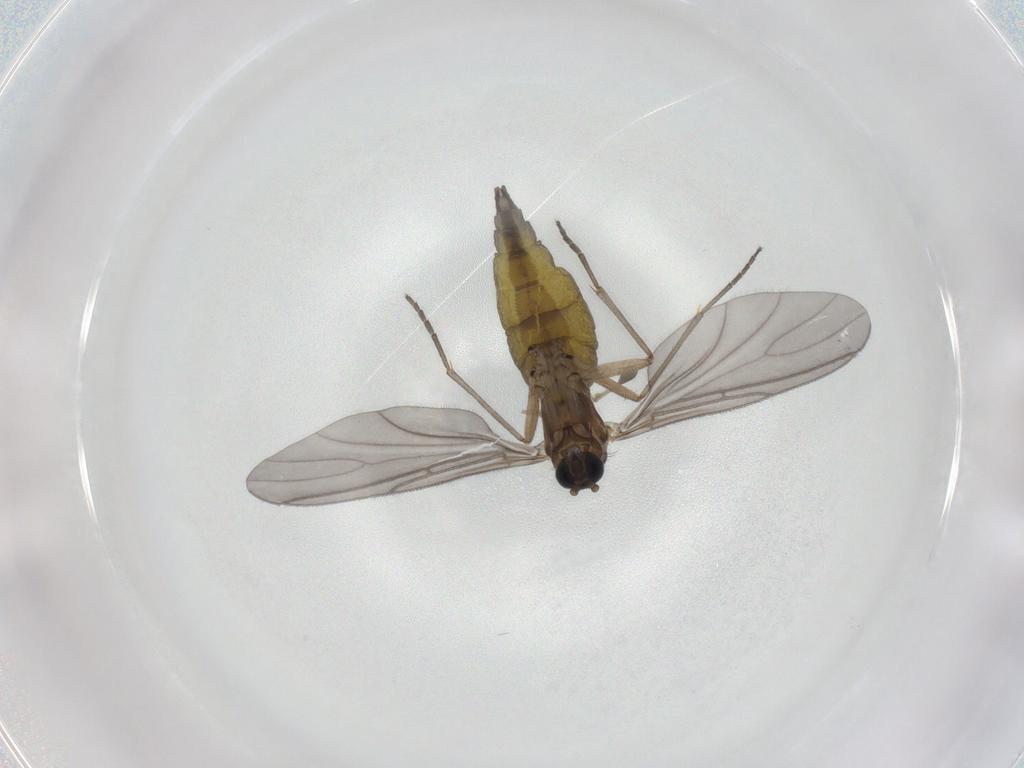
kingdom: Animalia
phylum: Arthropoda
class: Insecta
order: Diptera
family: Sciaridae
